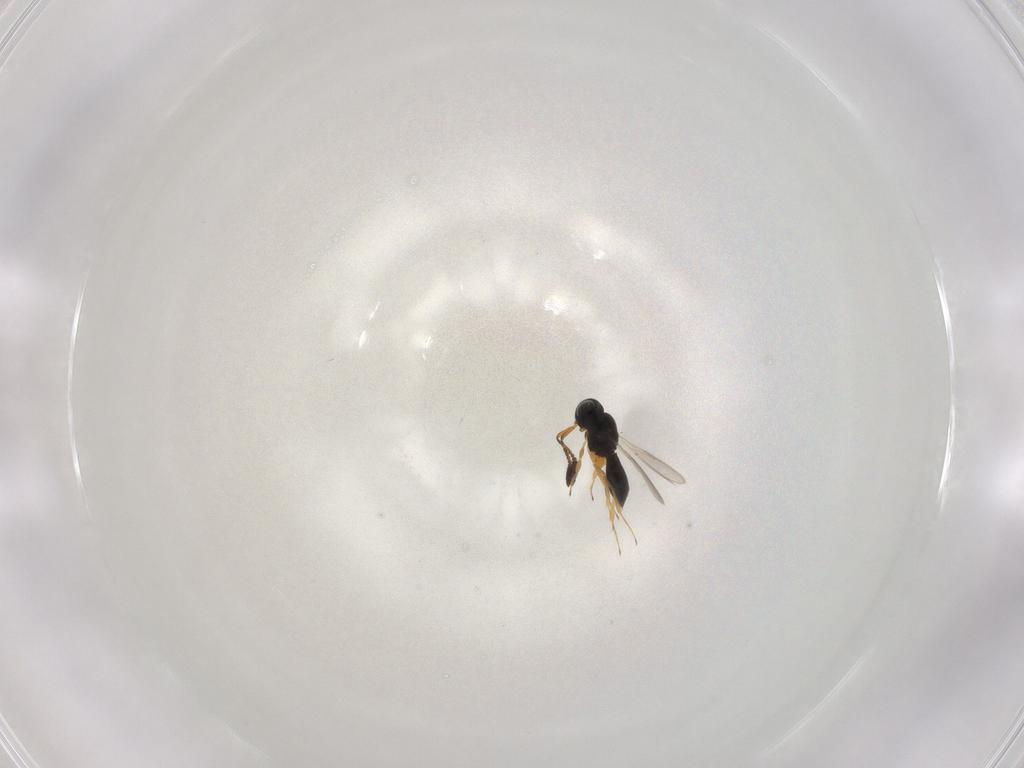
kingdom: Animalia
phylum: Arthropoda
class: Insecta
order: Hymenoptera
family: Scelionidae
